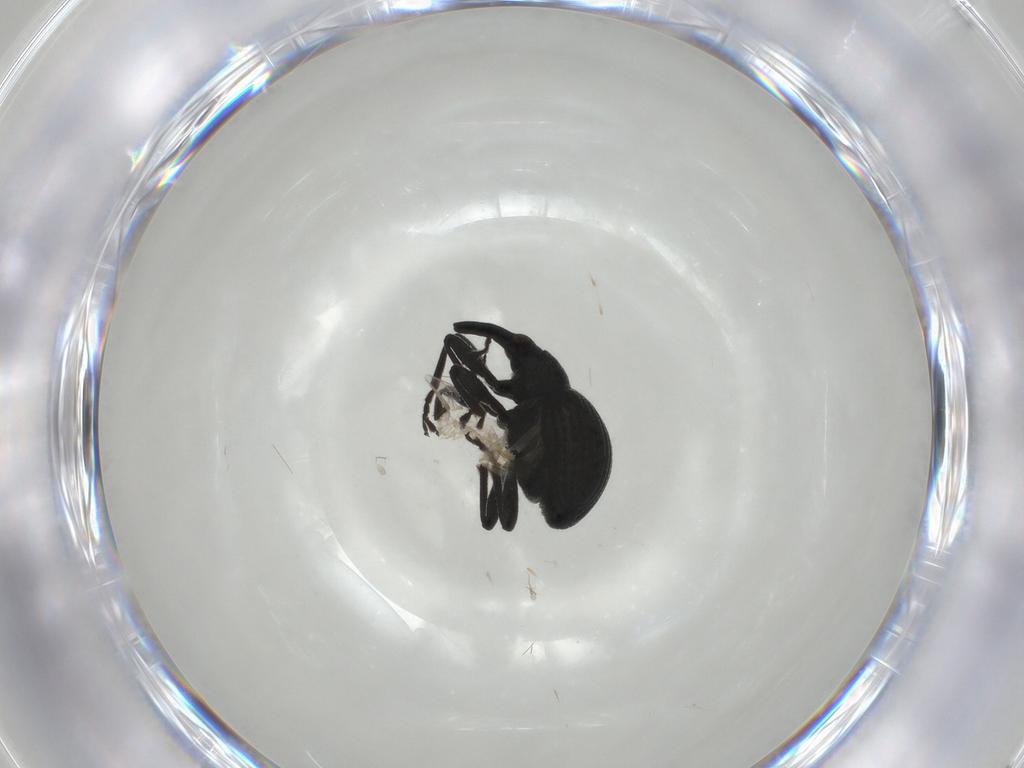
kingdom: Animalia
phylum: Arthropoda
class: Insecta
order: Coleoptera
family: Brentidae
